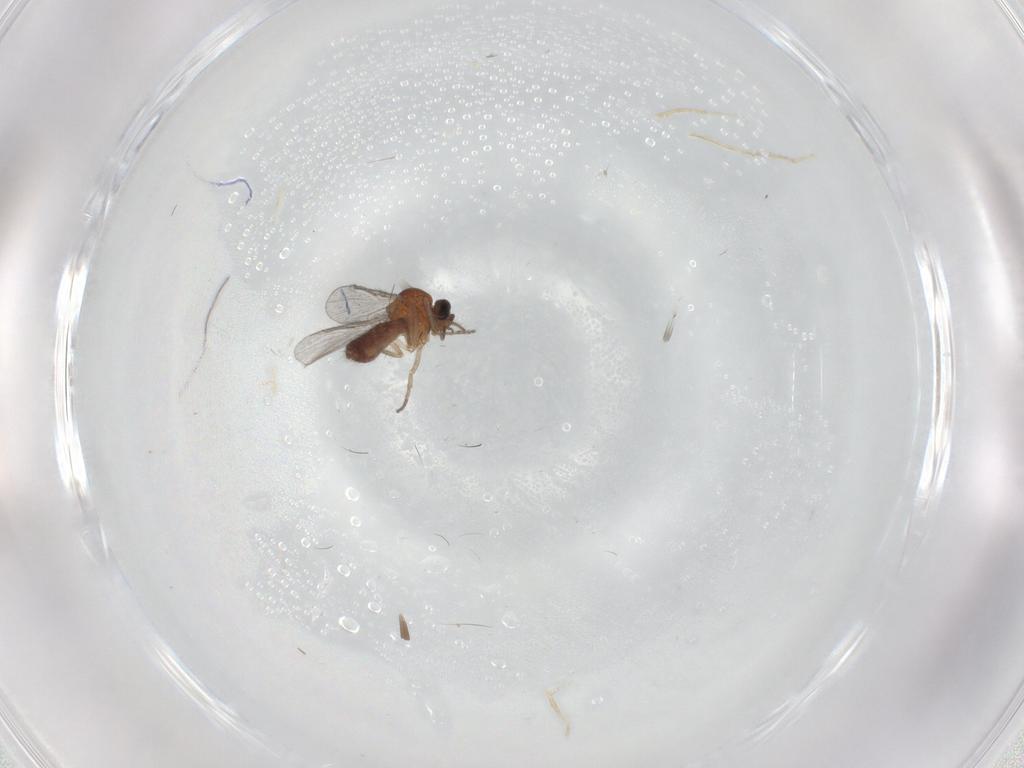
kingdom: Animalia
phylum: Arthropoda
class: Insecta
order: Diptera
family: Ceratopogonidae
